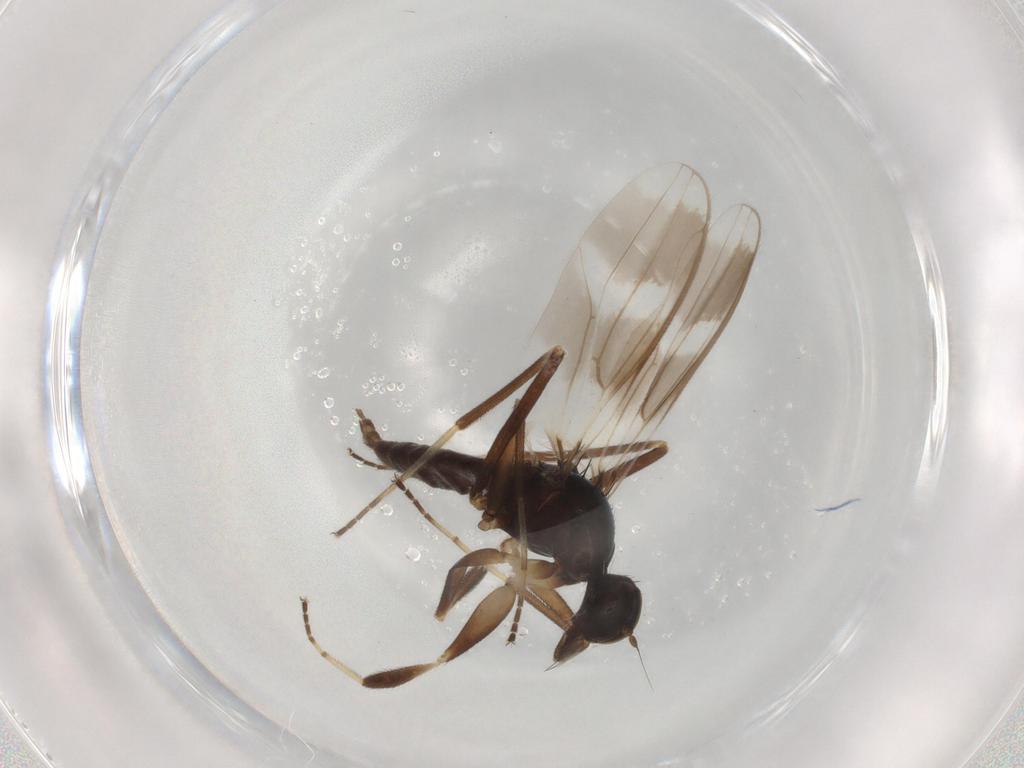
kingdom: Animalia
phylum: Arthropoda
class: Insecta
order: Diptera
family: Hybotidae
